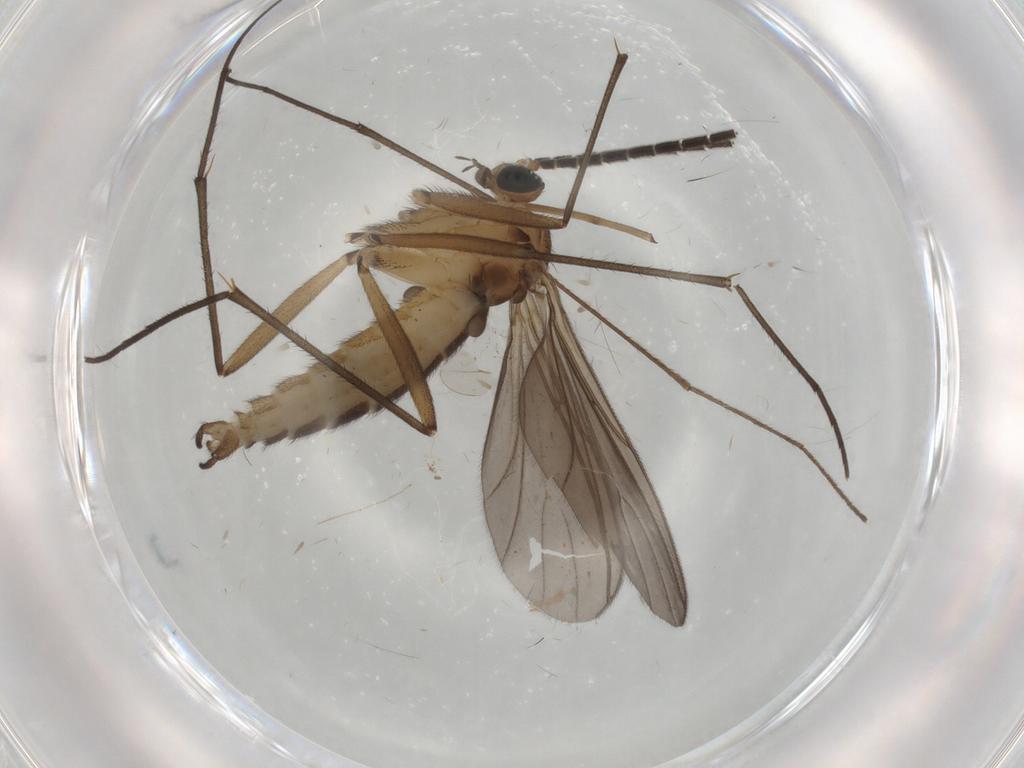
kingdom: Animalia
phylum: Arthropoda
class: Insecta
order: Diptera
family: Limoniidae
